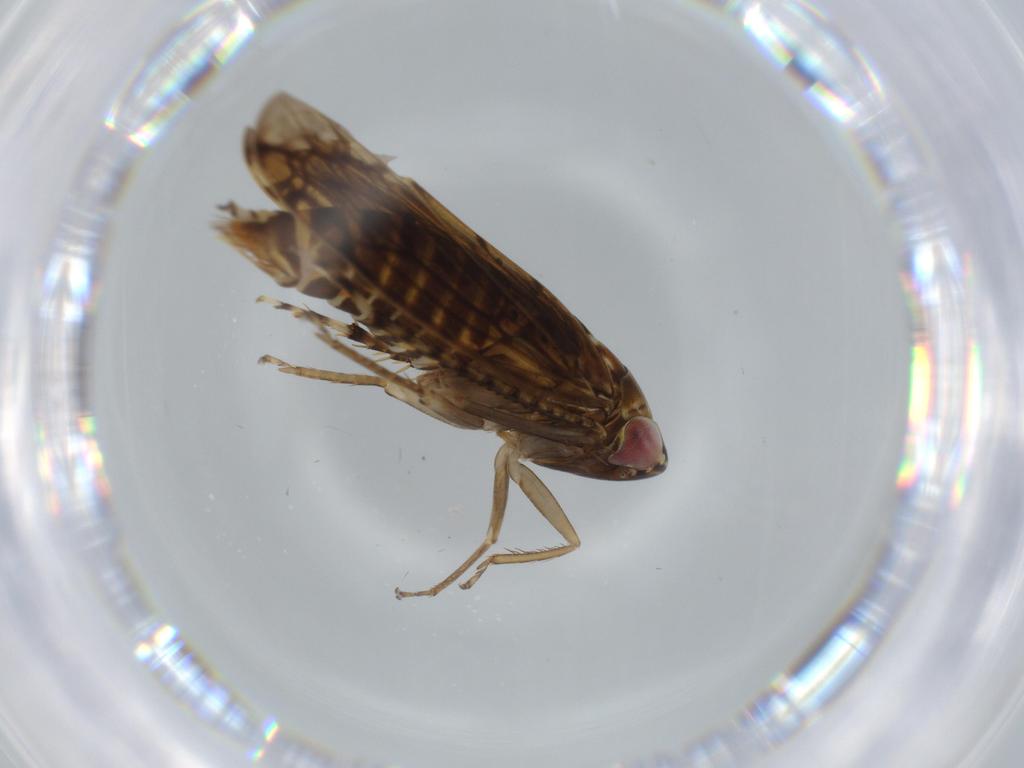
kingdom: Animalia
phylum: Arthropoda
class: Insecta
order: Hemiptera
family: Cicadellidae
